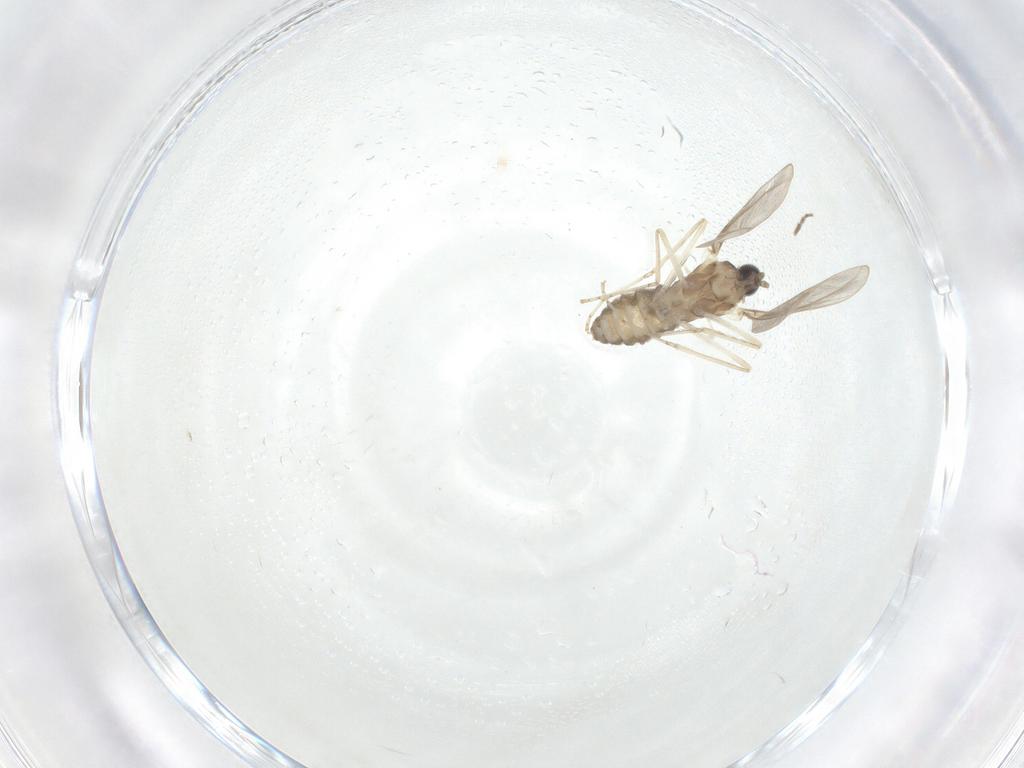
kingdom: Animalia
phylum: Arthropoda
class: Insecta
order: Diptera
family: Cecidomyiidae
